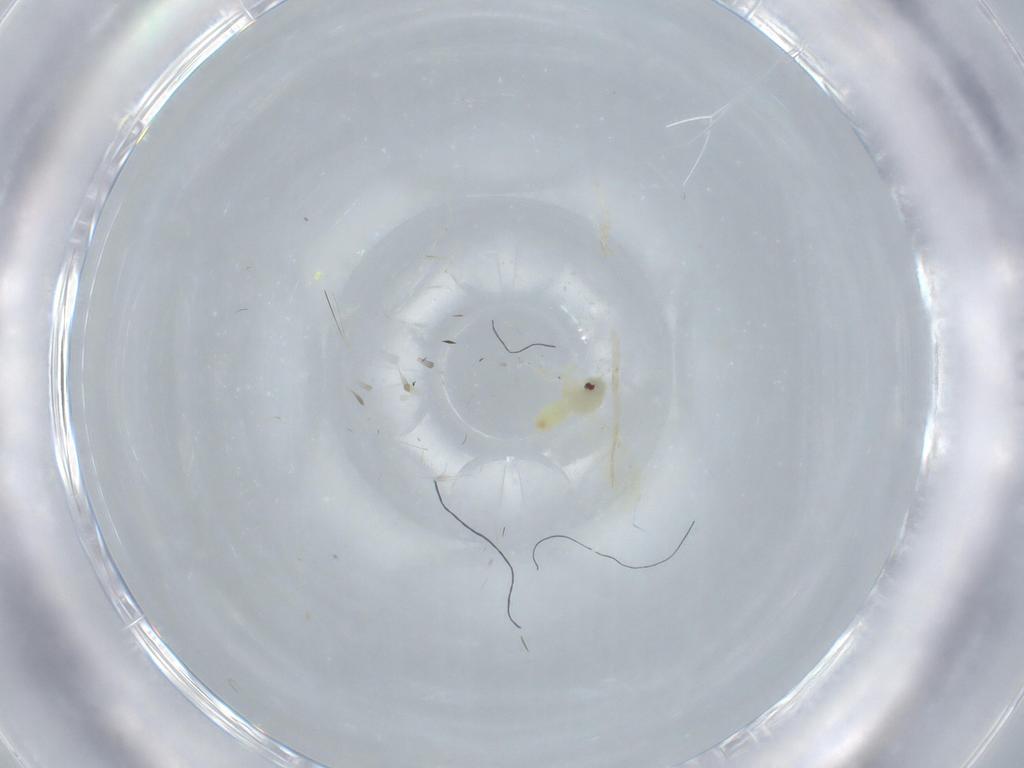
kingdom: Animalia
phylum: Arthropoda
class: Insecta
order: Hemiptera
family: Aleyrodidae
